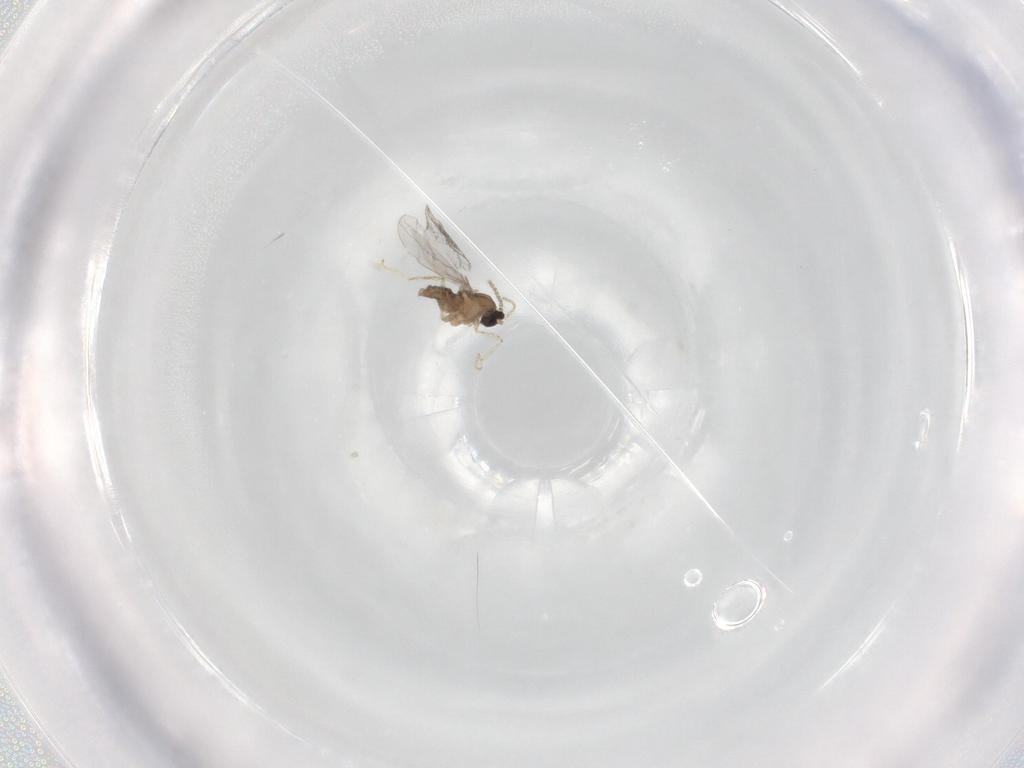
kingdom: Animalia
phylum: Arthropoda
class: Insecta
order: Diptera
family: Cecidomyiidae
